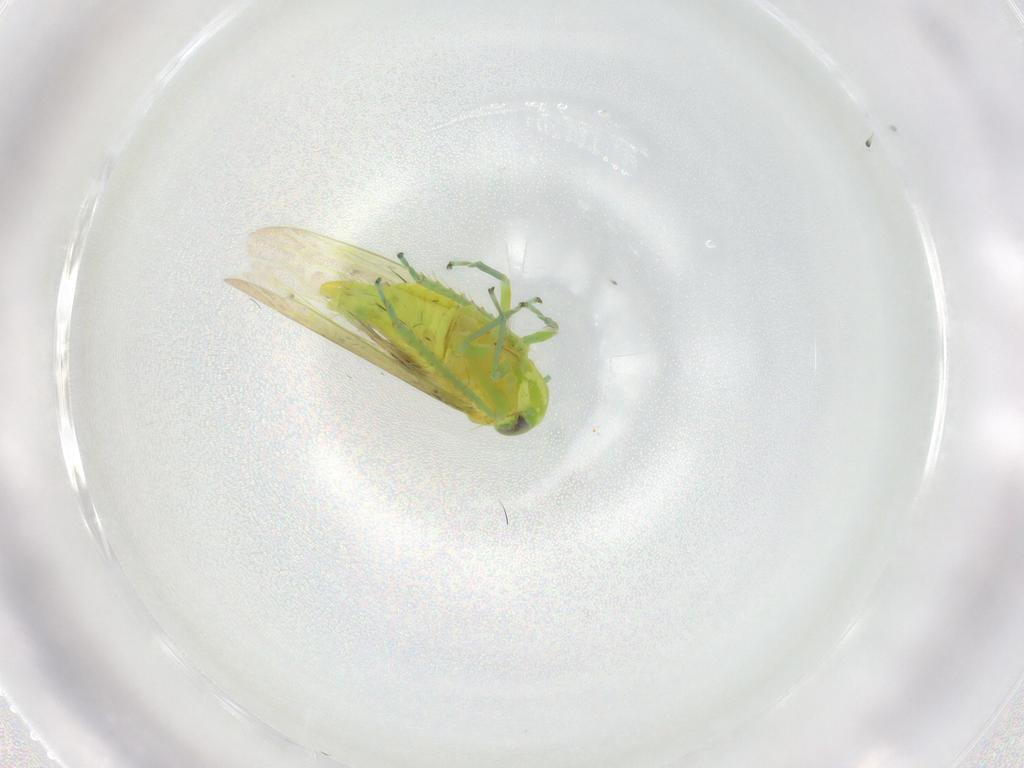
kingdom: Animalia
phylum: Arthropoda
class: Insecta
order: Hemiptera
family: Cicadellidae
